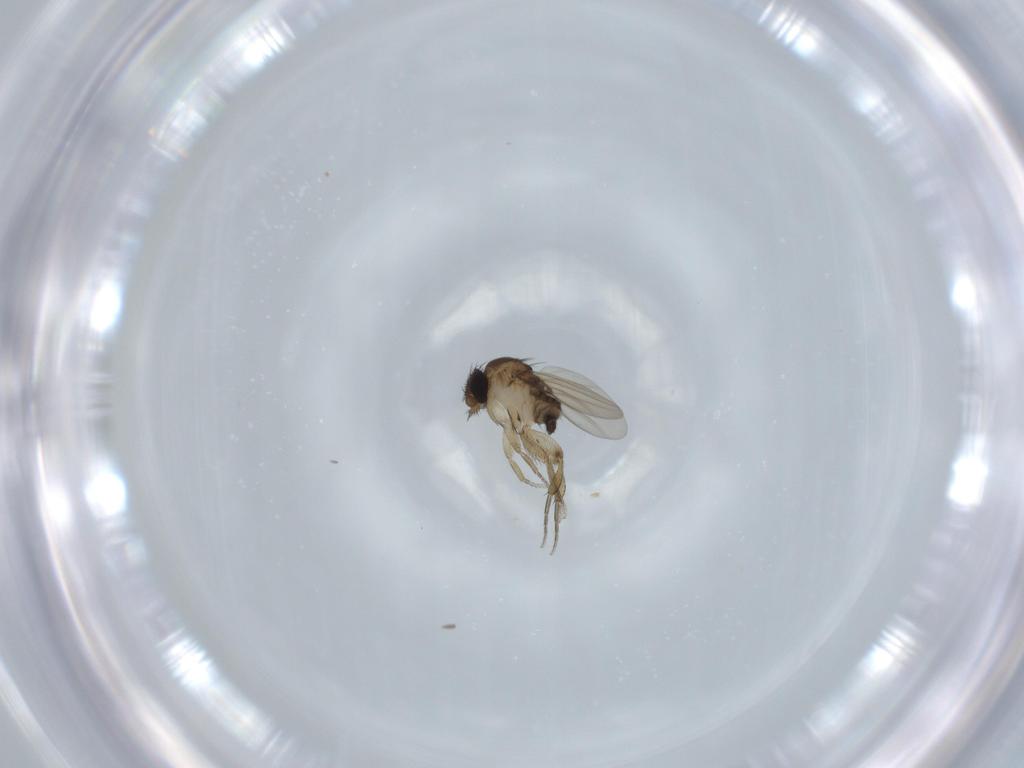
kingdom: Animalia
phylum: Arthropoda
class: Insecta
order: Diptera
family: Phoridae
